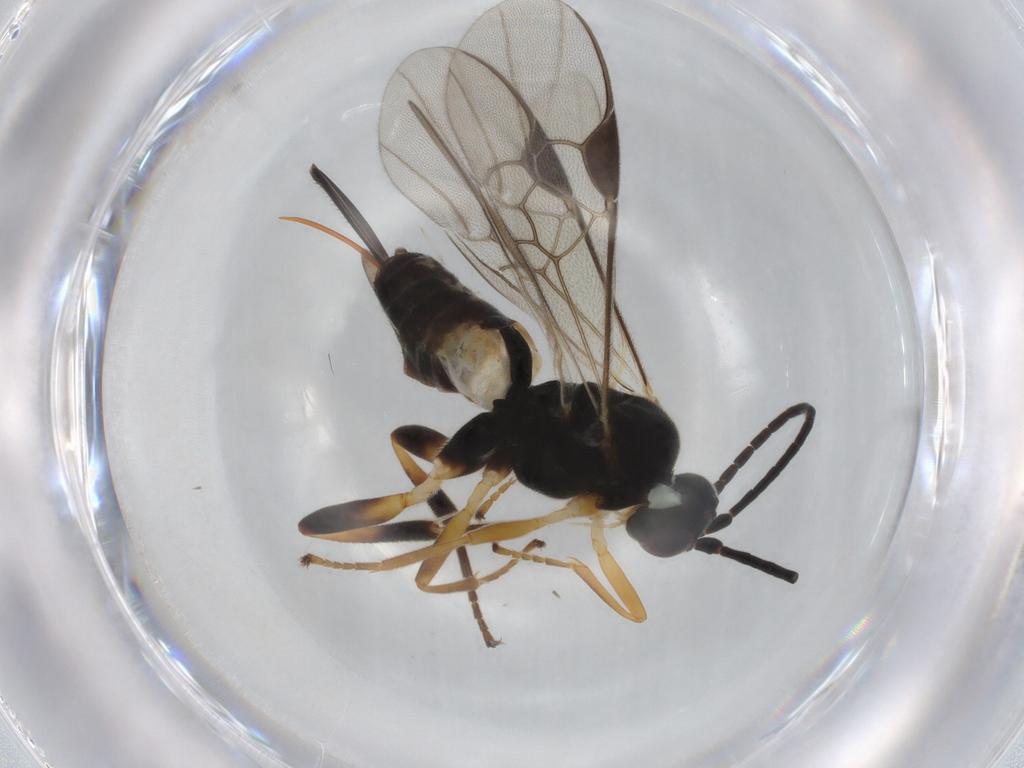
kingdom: Animalia
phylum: Arthropoda
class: Insecta
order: Hymenoptera
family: Braconidae
